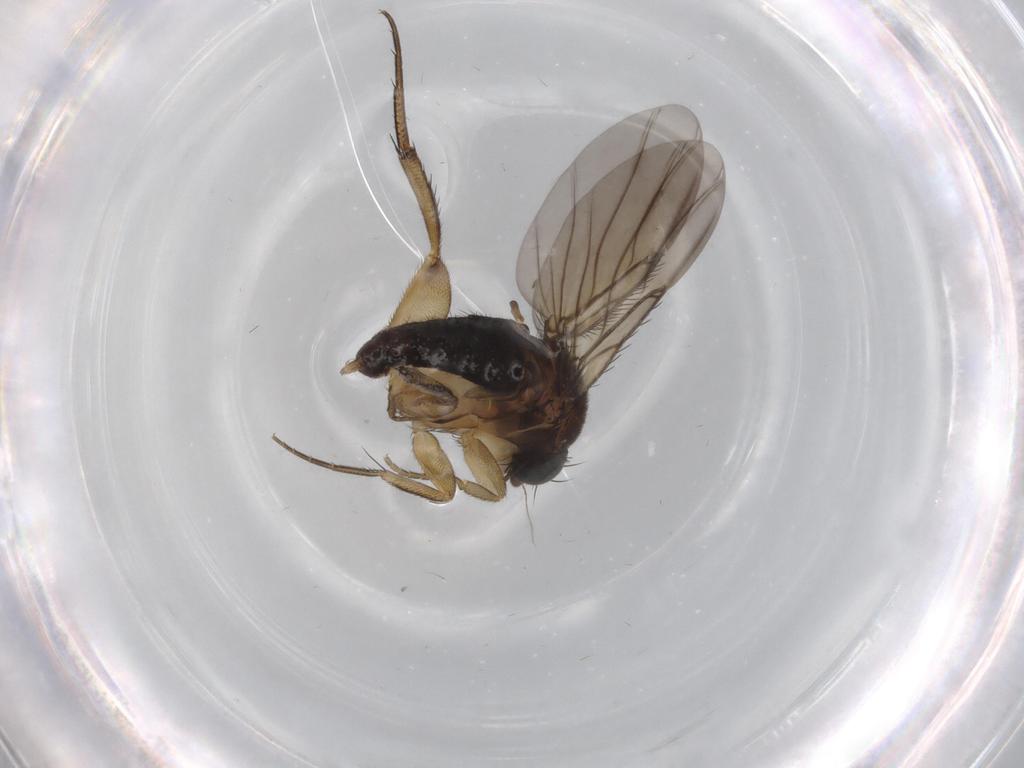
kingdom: Animalia
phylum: Arthropoda
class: Insecta
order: Diptera
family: Phoridae
